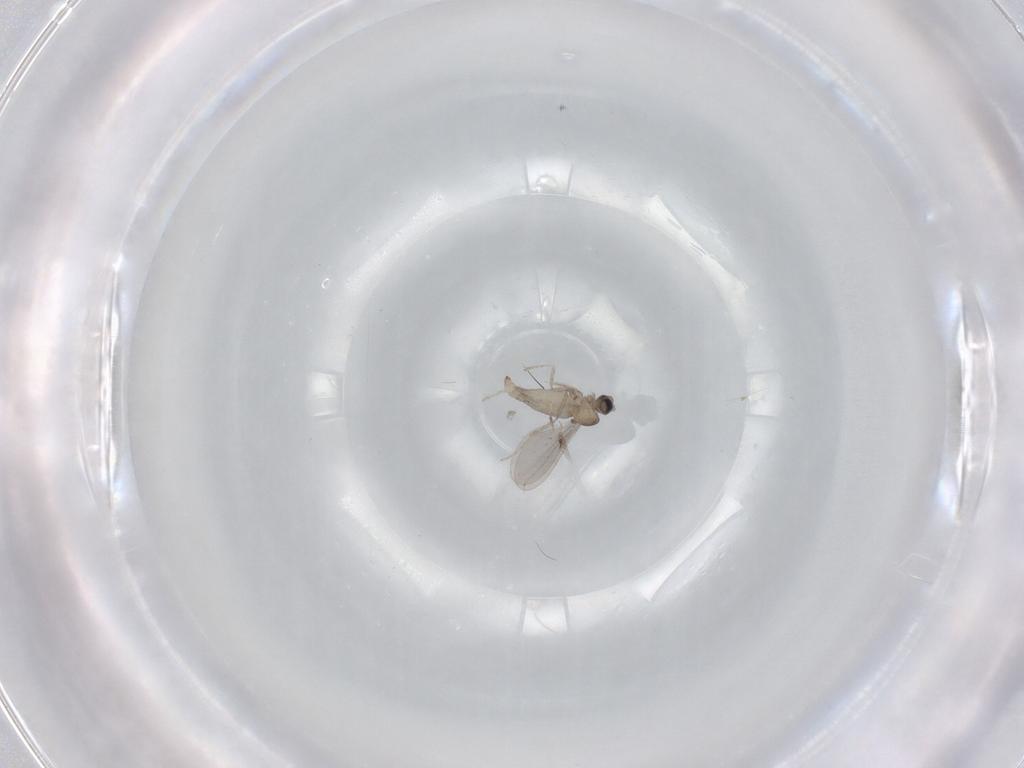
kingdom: Animalia
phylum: Arthropoda
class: Insecta
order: Diptera
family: Cecidomyiidae
